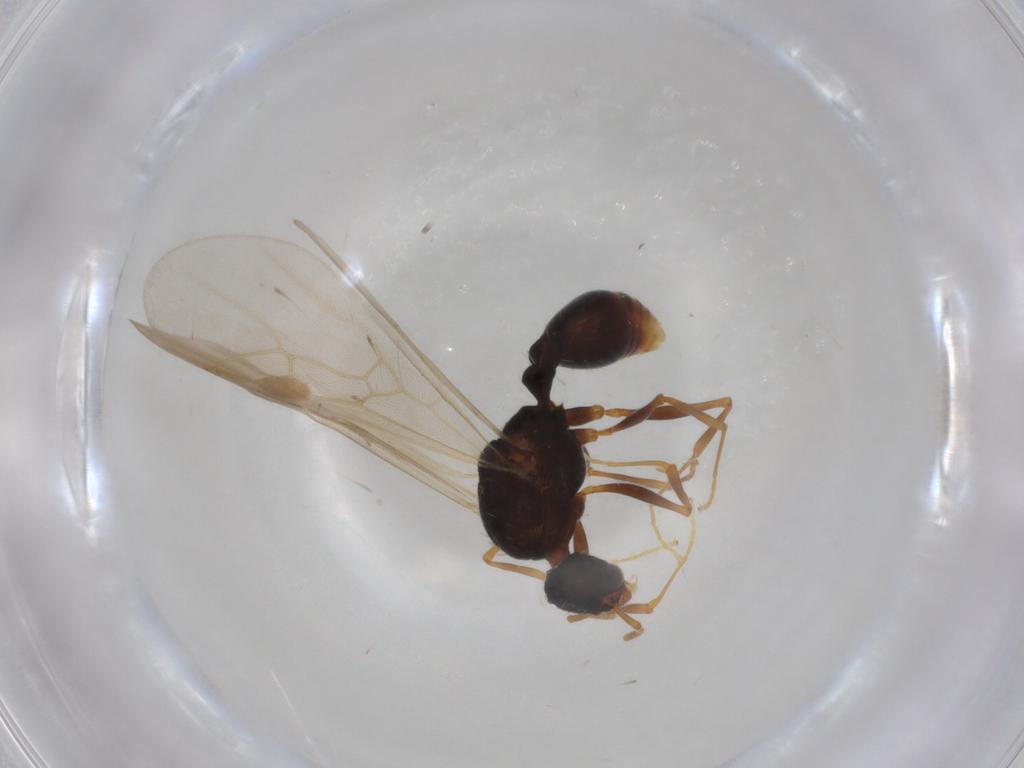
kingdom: Animalia
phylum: Arthropoda
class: Insecta
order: Hymenoptera
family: Formicidae
